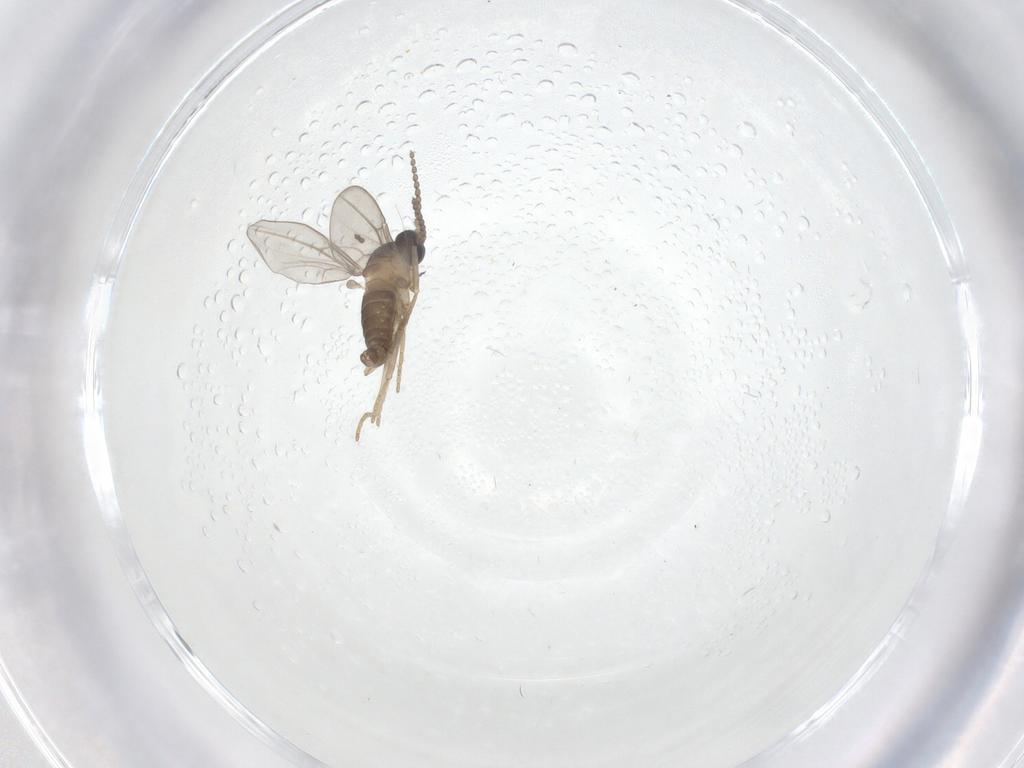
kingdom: Animalia
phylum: Arthropoda
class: Insecta
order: Diptera
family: Cecidomyiidae
